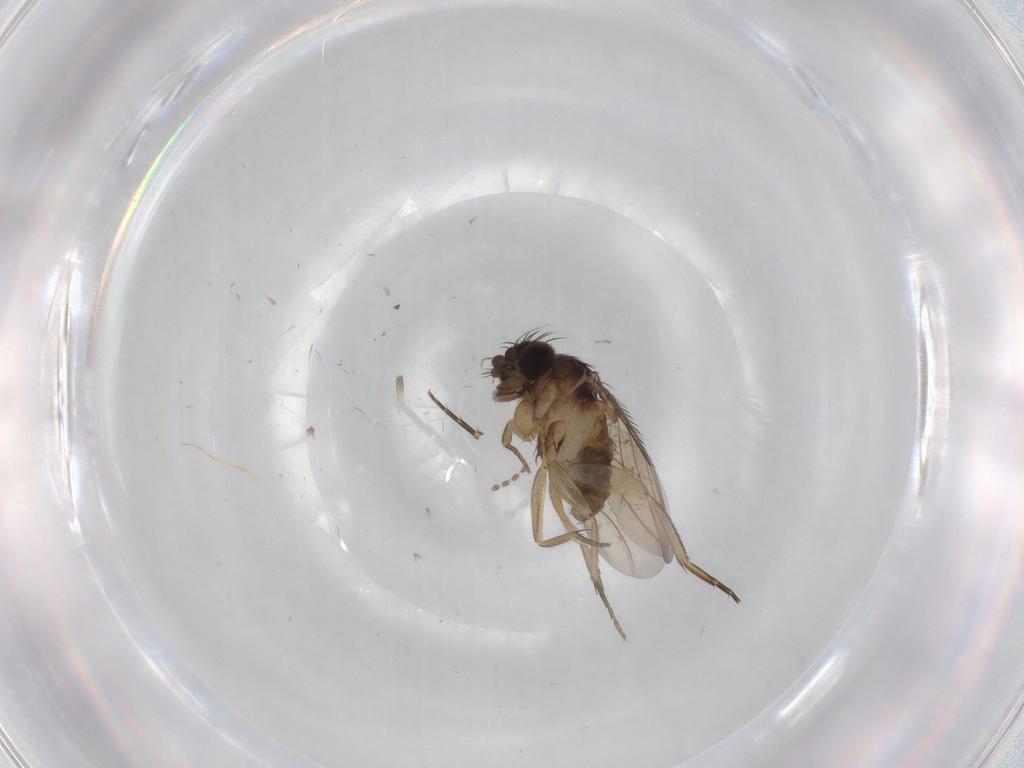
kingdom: Animalia
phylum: Arthropoda
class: Insecta
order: Diptera
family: Phoridae
